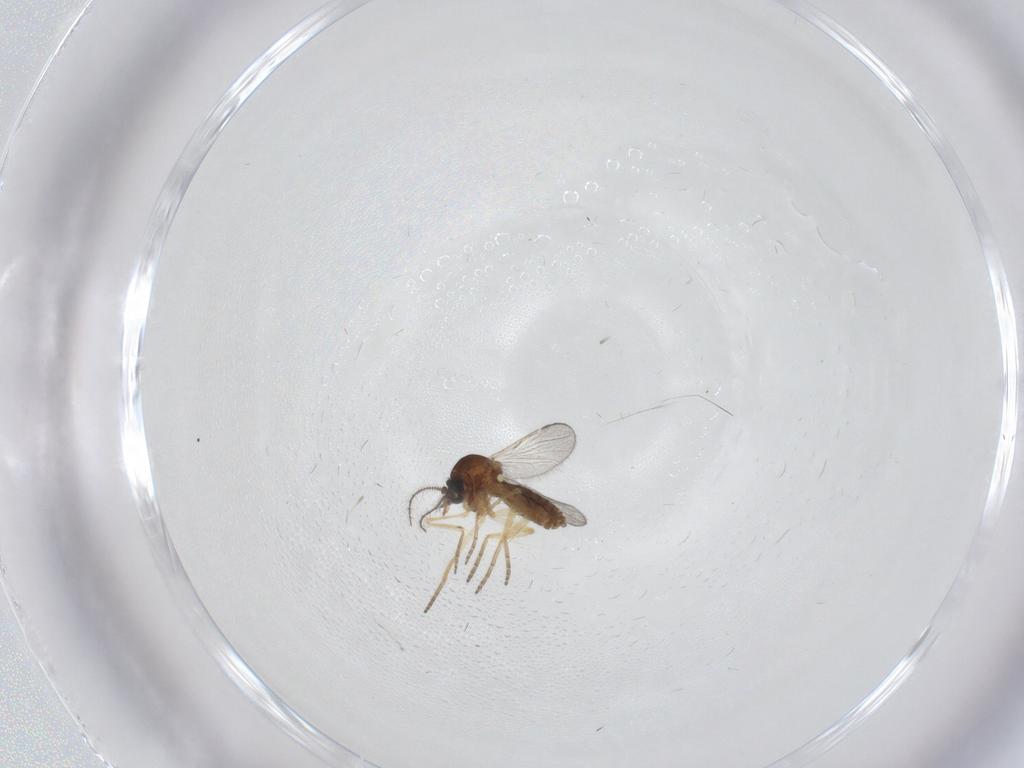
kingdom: Animalia
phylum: Arthropoda
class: Insecta
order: Diptera
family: Ceratopogonidae
